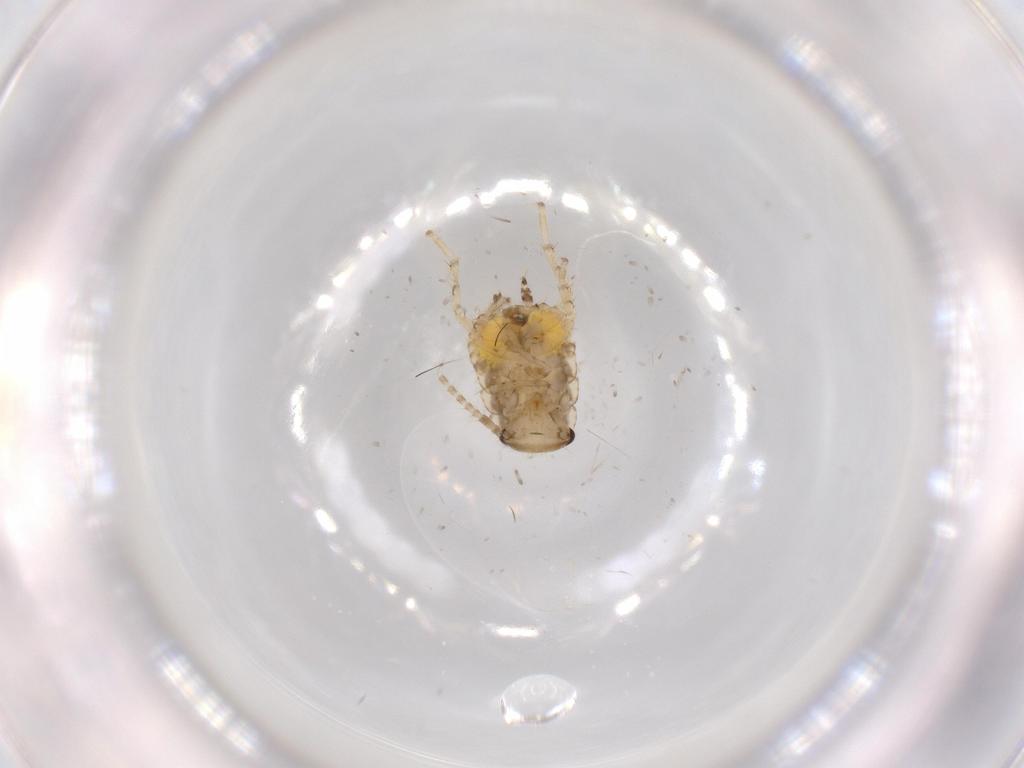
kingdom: Animalia
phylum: Arthropoda
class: Insecta
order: Blattodea
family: Ectobiidae
